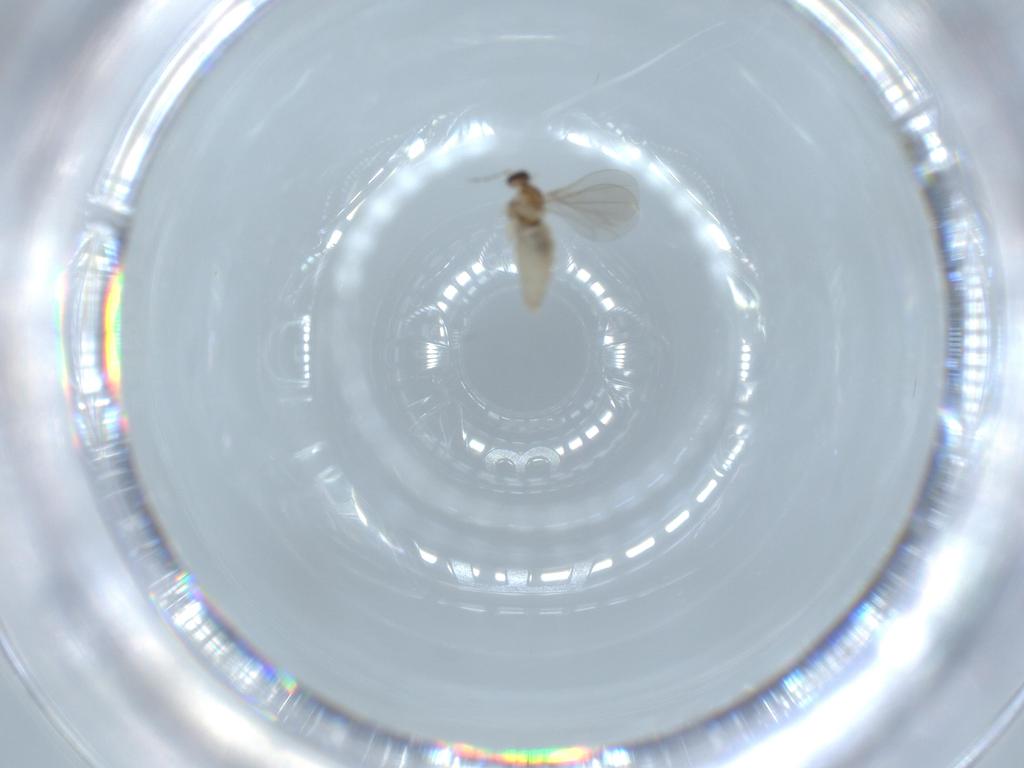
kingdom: Animalia
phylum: Arthropoda
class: Insecta
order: Diptera
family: Cecidomyiidae
